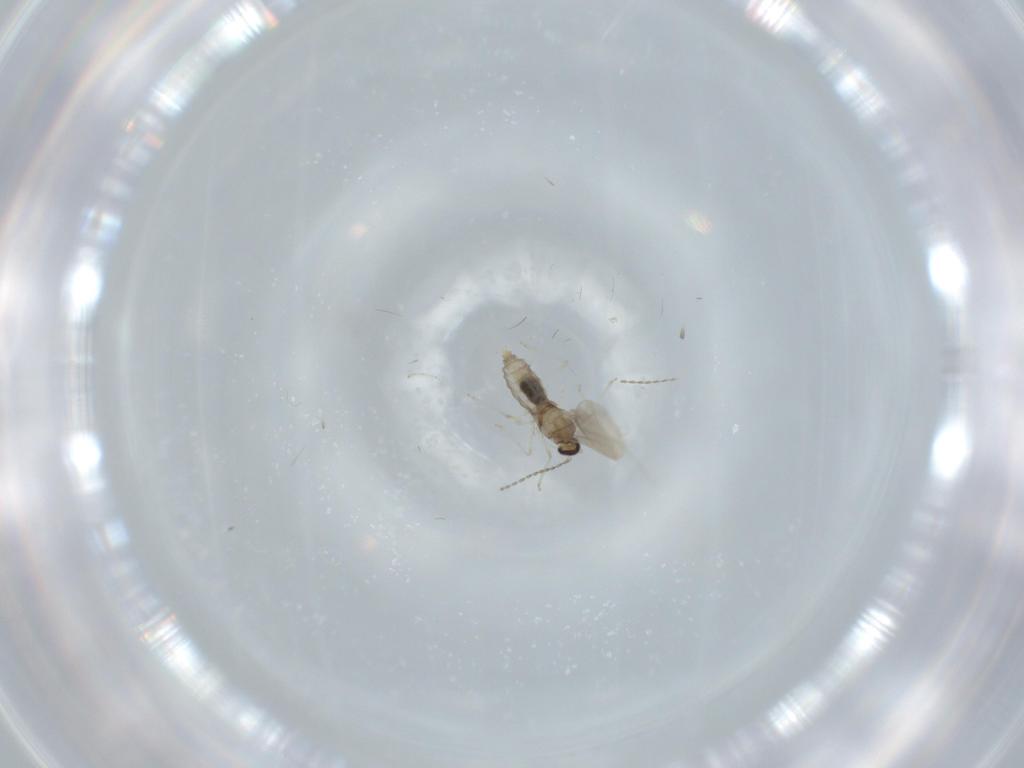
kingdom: Animalia
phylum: Arthropoda
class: Insecta
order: Diptera
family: Cecidomyiidae
